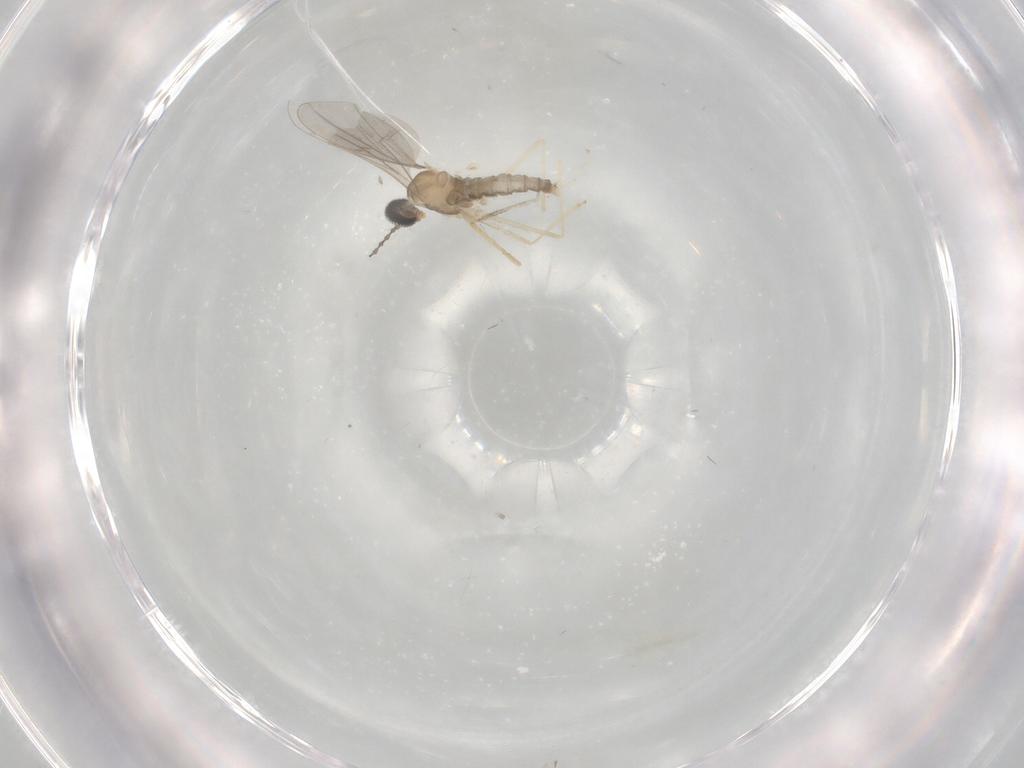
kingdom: Animalia
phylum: Arthropoda
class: Insecta
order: Diptera
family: Cecidomyiidae
